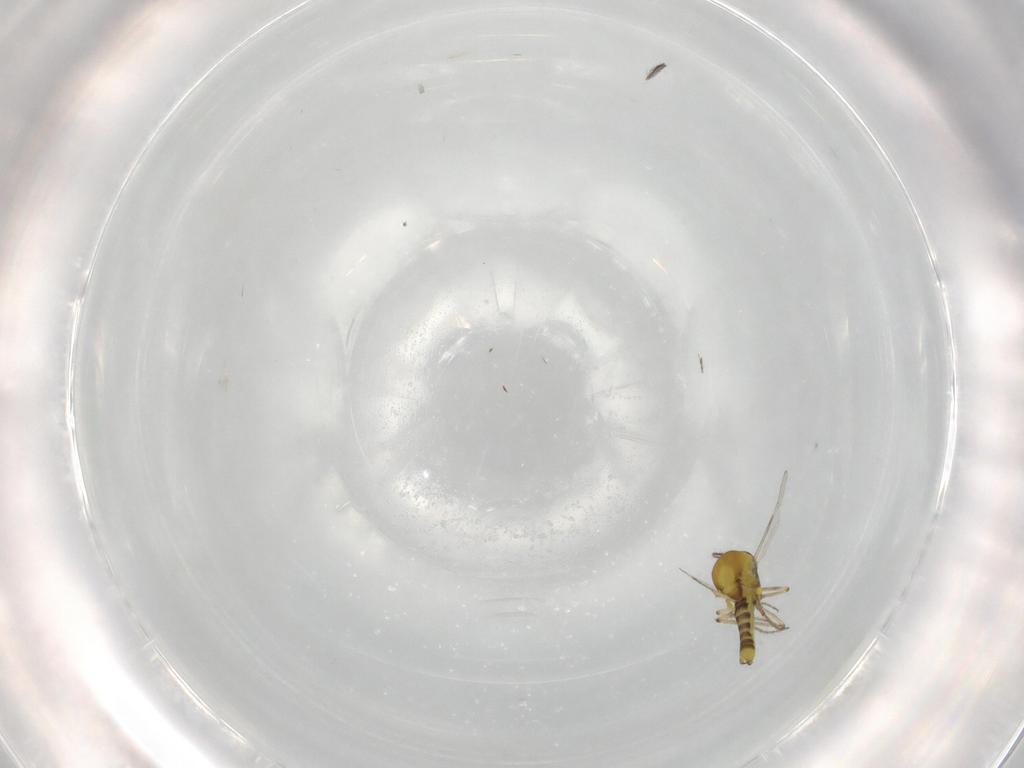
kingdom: Animalia
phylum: Arthropoda
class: Insecta
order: Diptera
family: Ceratopogonidae
